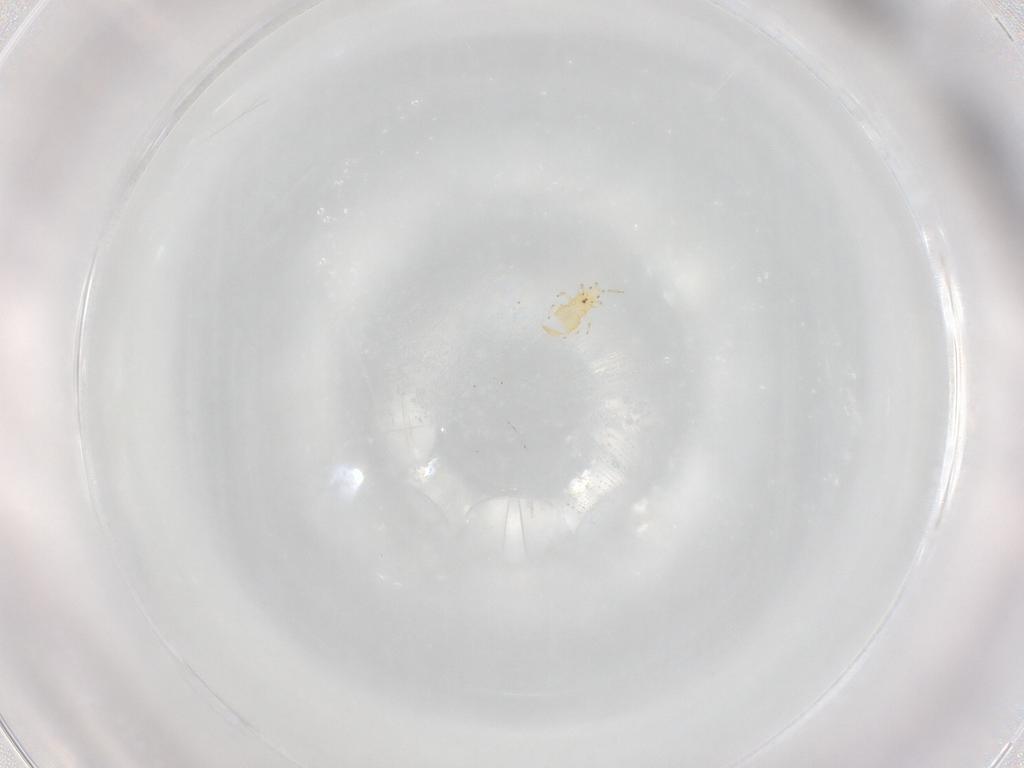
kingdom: Animalia
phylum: Arthropoda
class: Insecta
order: Thysanoptera
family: Thripidae
